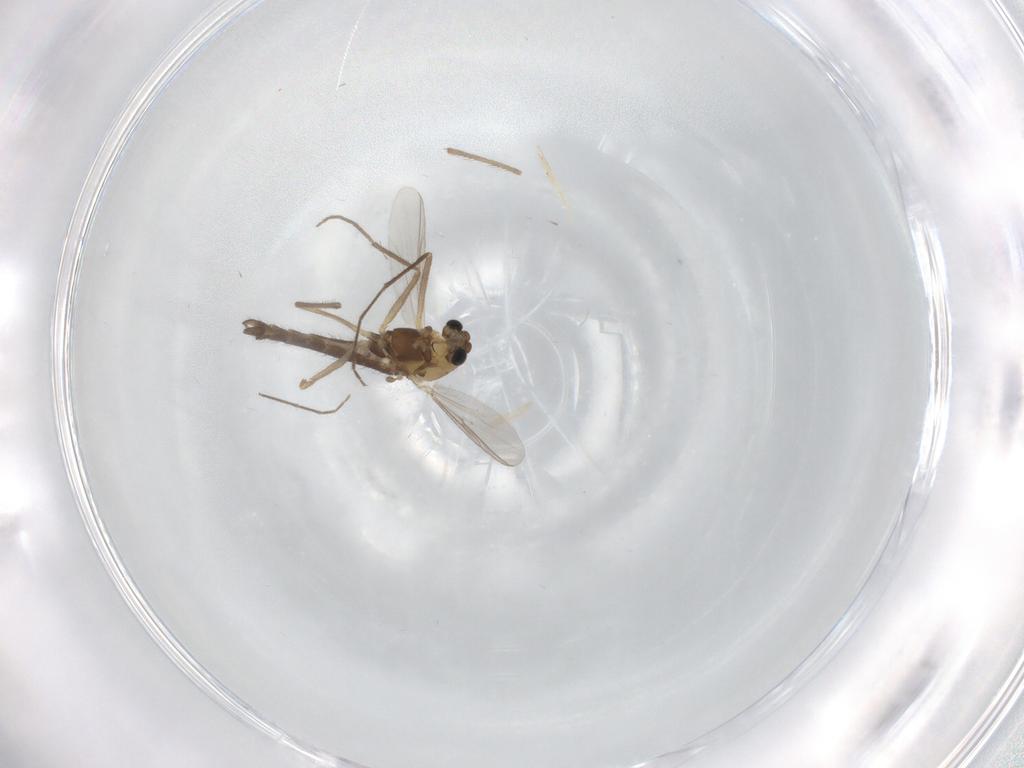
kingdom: Animalia
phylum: Arthropoda
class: Insecta
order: Diptera
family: Chironomidae
